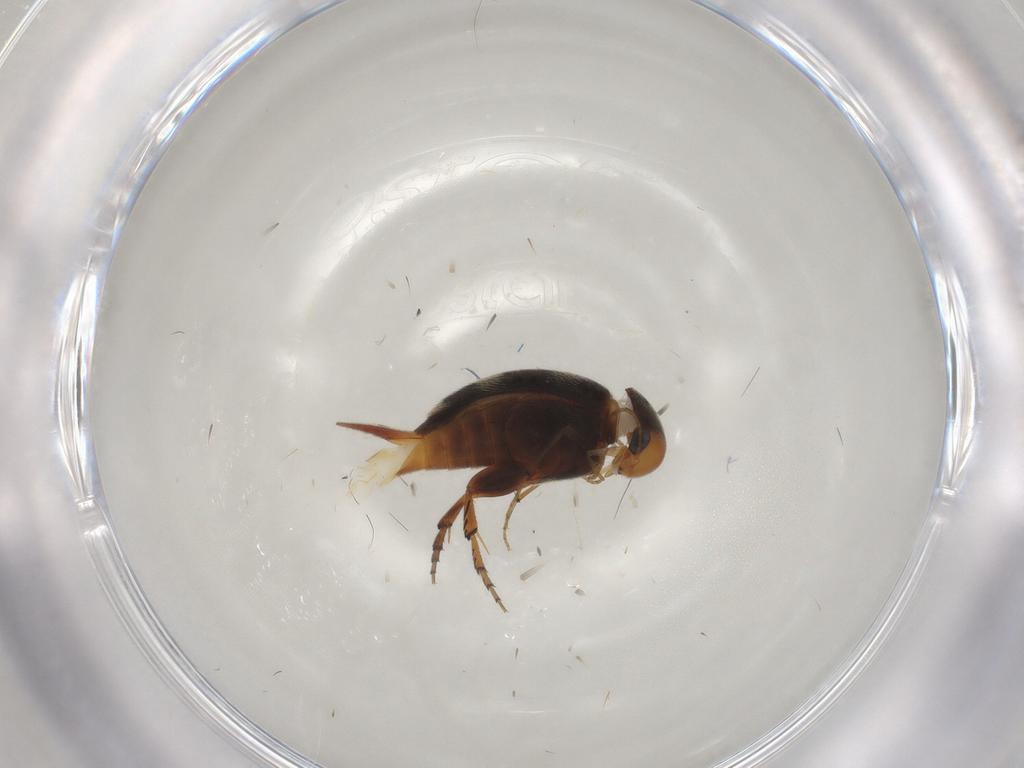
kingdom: Animalia
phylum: Arthropoda
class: Insecta
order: Coleoptera
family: Mordellidae
